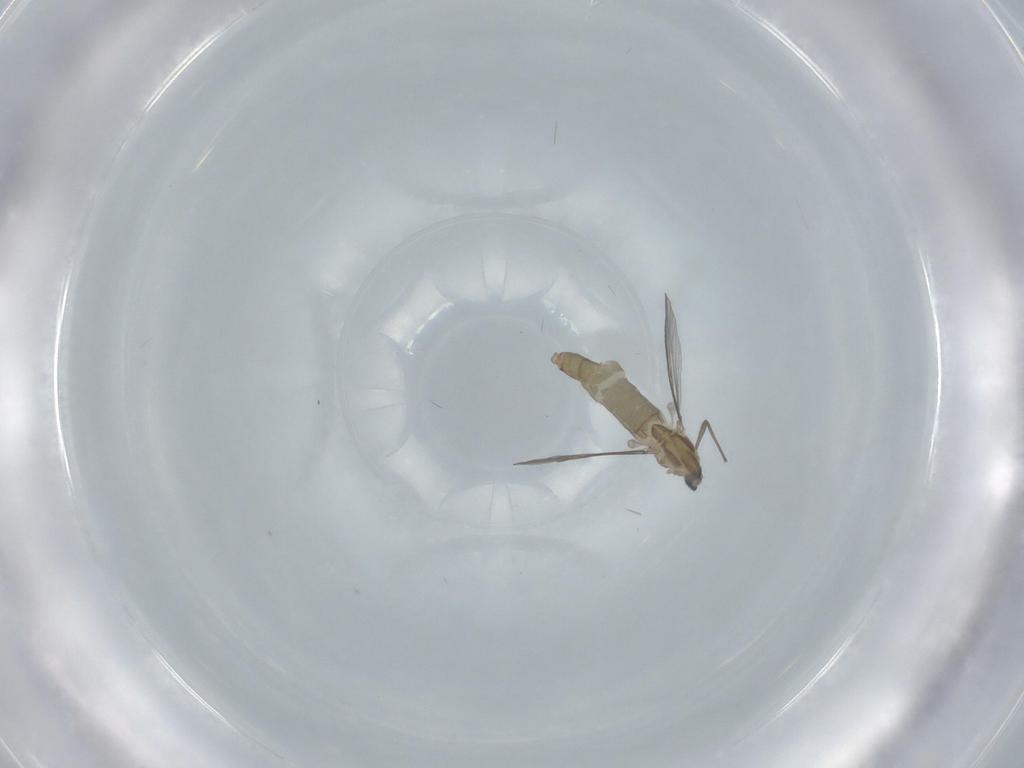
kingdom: Animalia
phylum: Arthropoda
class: Insecta
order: Diptera
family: Chironomidae
